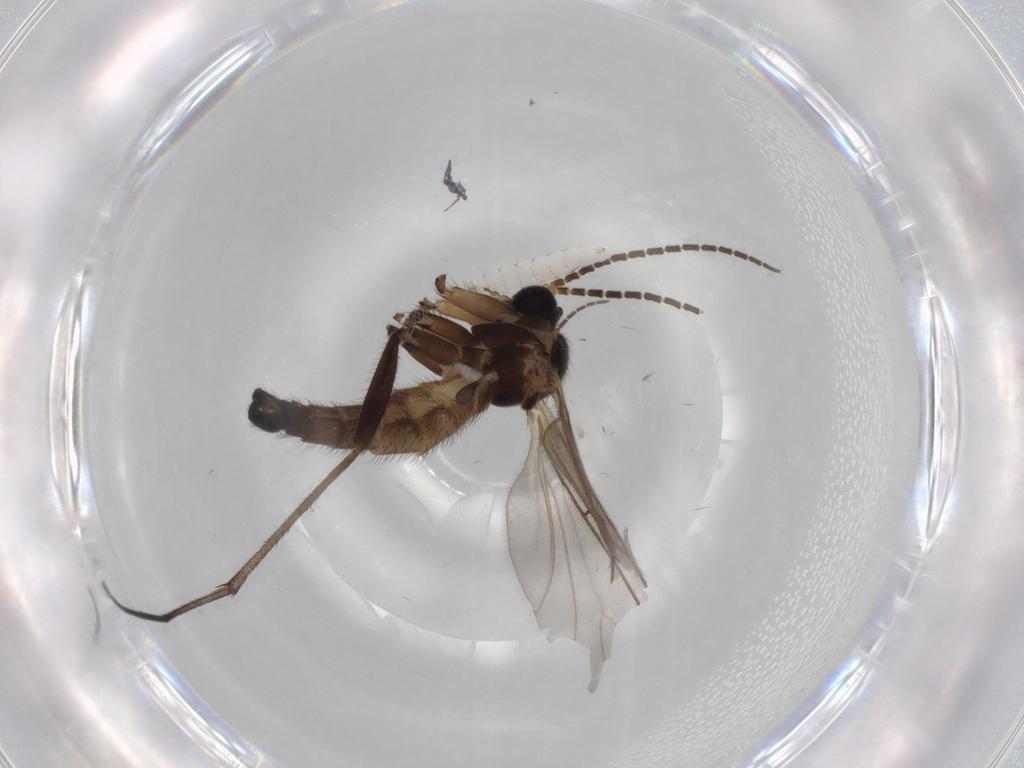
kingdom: Animalia
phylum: Arthropoda
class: Insecta
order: Diptera
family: Sciaridae
